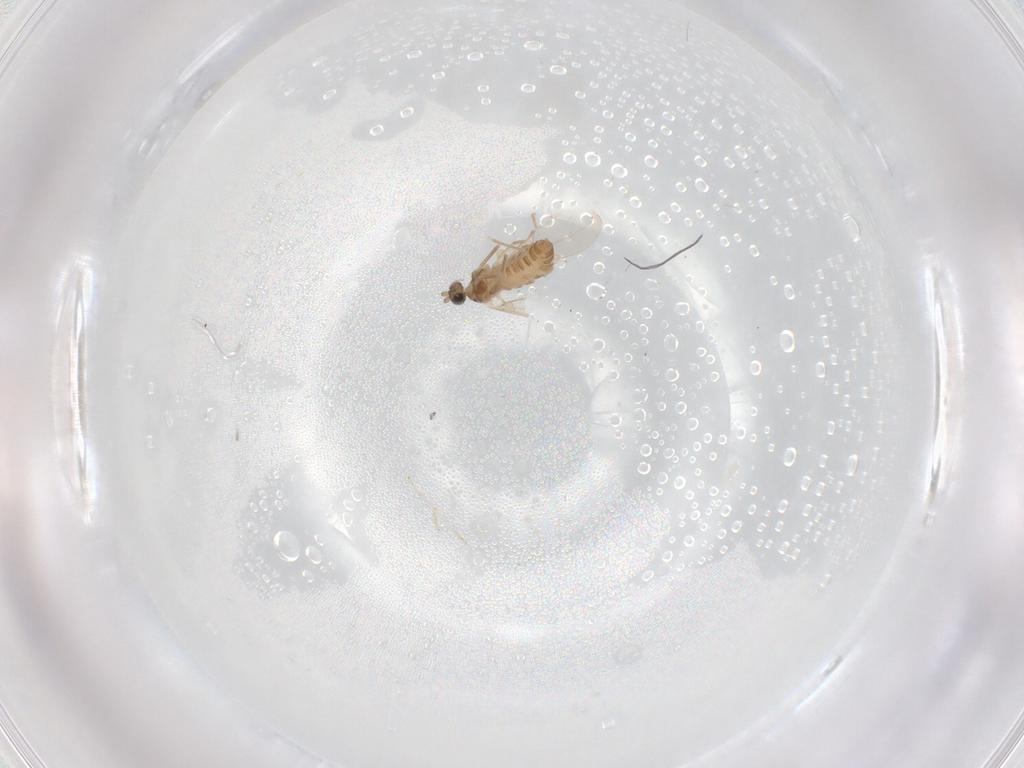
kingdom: Animalia
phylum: Arthropoda
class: Insecta
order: Diptera
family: Cecidomyiidae
